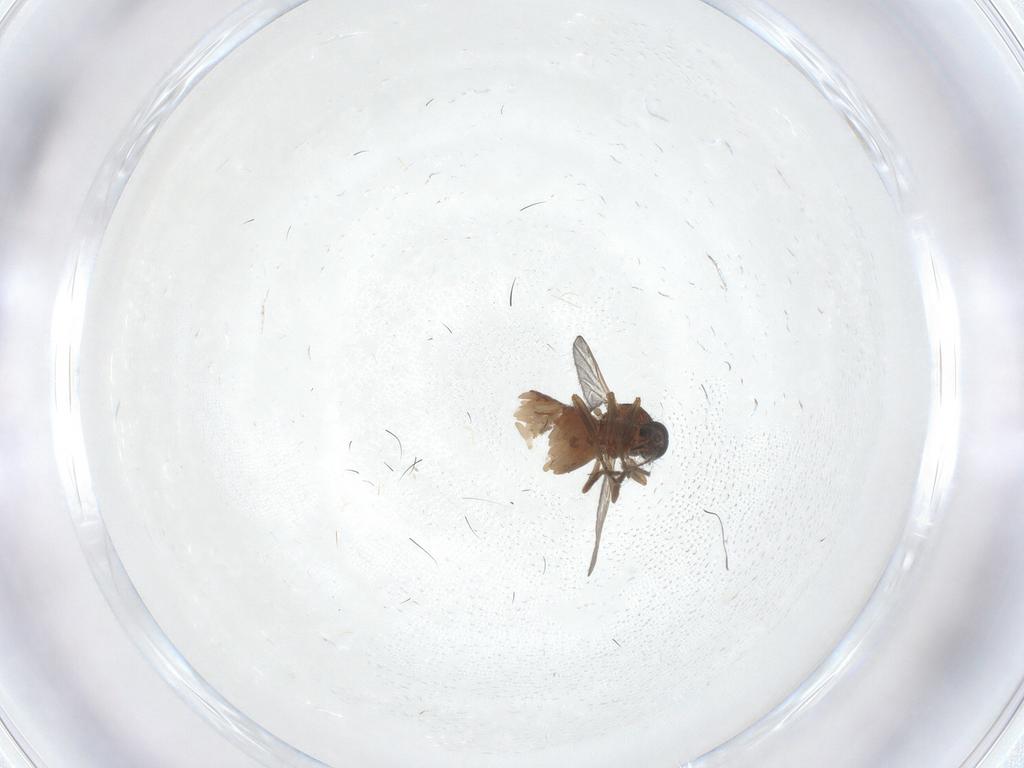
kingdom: Animalia
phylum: Arthropoda
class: Insecta
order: Diptera
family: Ceratopogonidae
